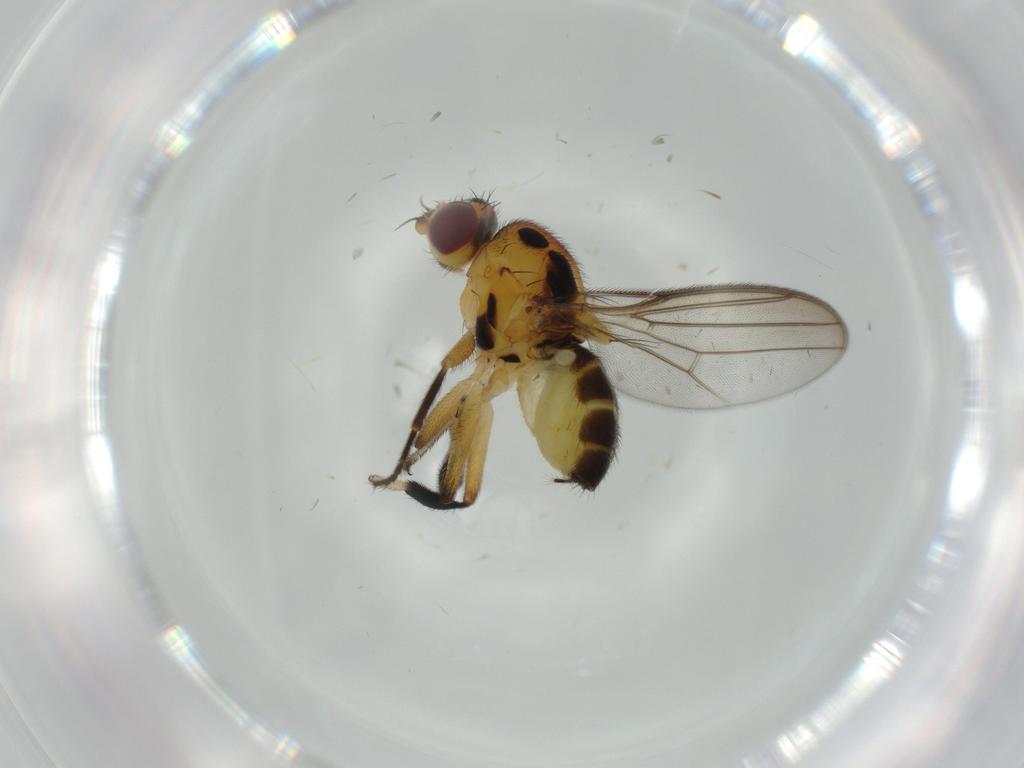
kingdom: Animalia
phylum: Arthropoda
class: Insecta
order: Diptera
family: Chloropidae
